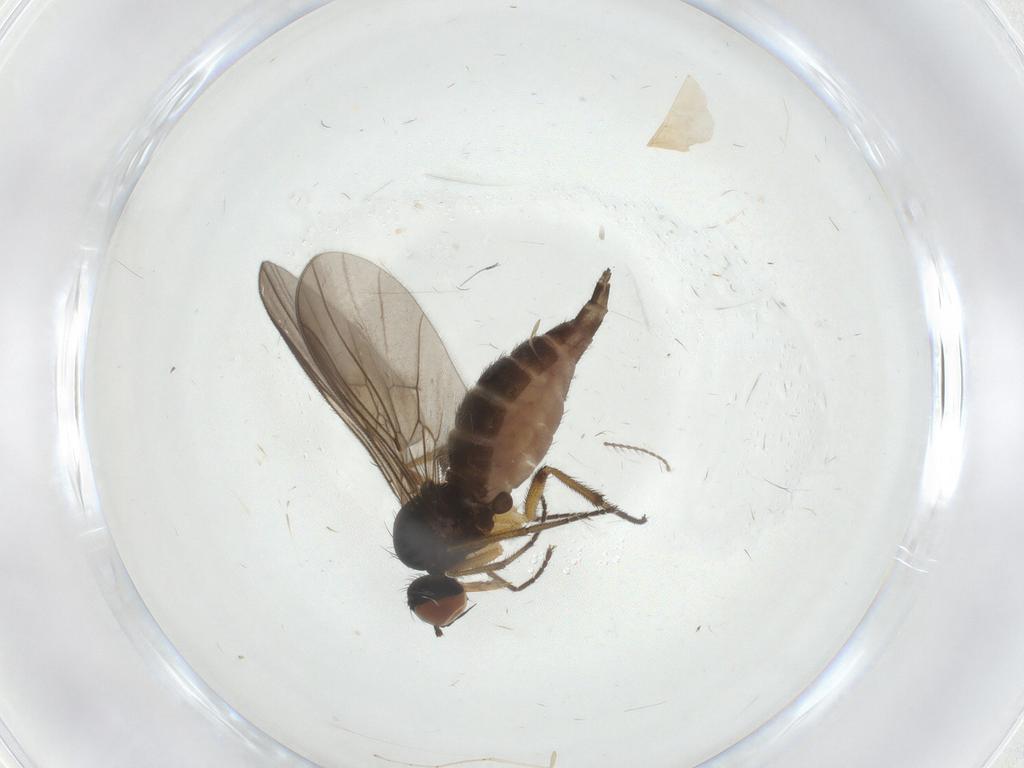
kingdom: Animalia
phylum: Arthropoda
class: Insecta
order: Diptera
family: Empididae
